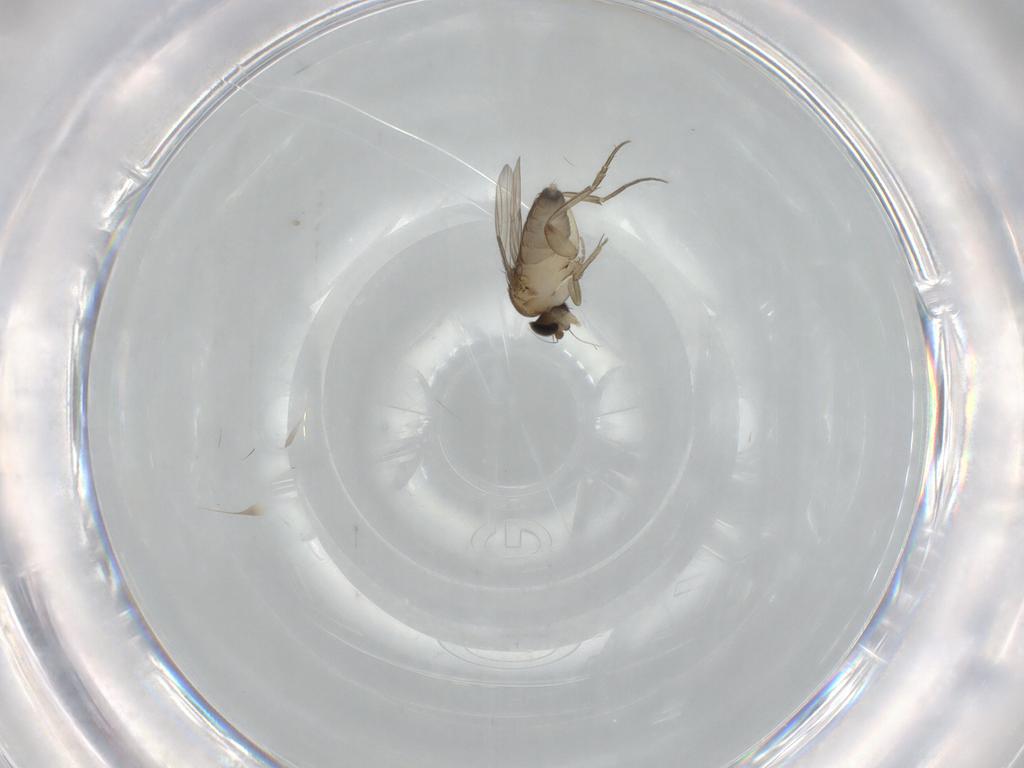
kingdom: Animalia
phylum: Arthropoda
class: Insecta
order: Diptera
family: Phoridae
